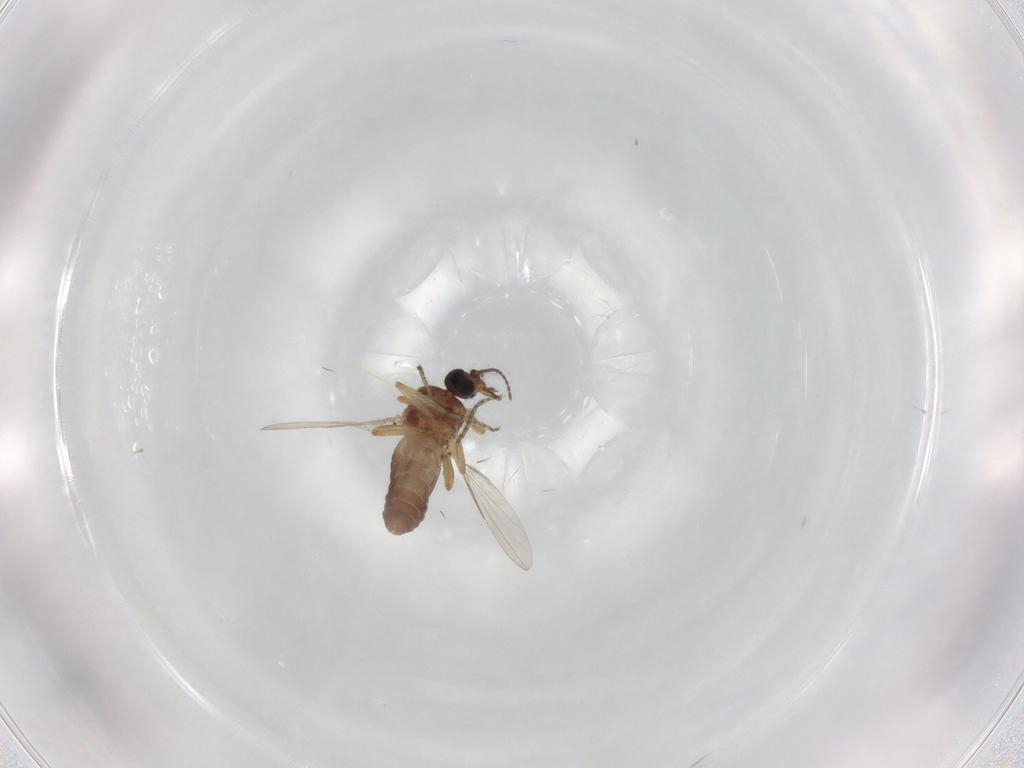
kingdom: Animalia
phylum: Arthropoda
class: Insecta
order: Diptera
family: Ceratopogonidae
